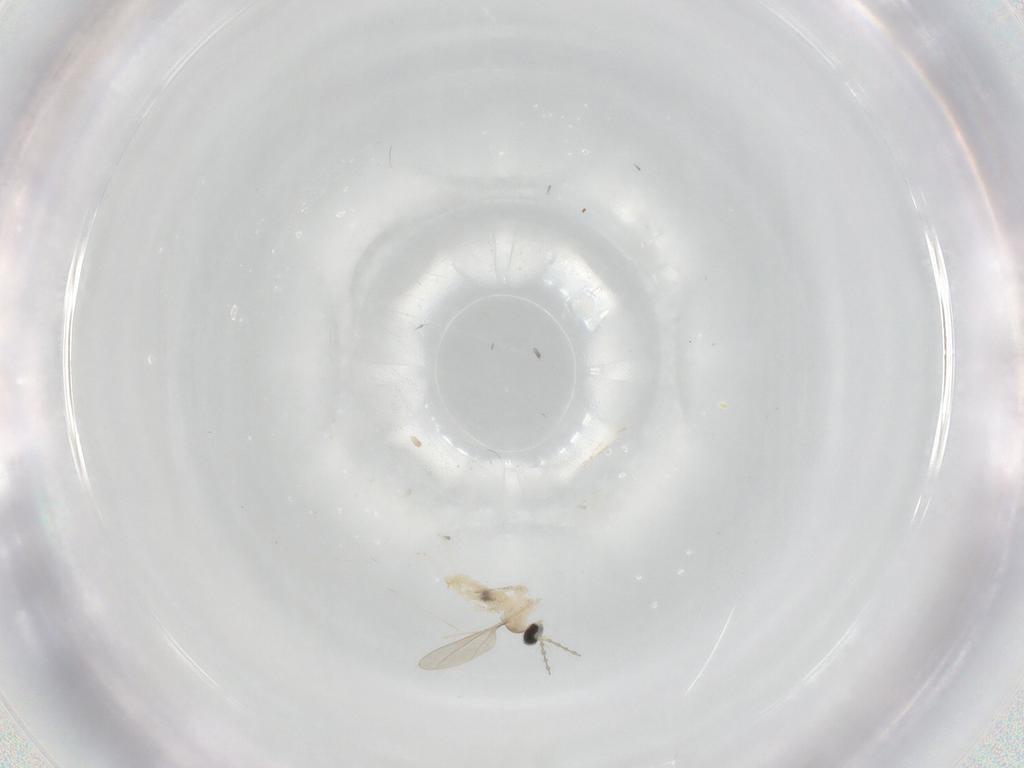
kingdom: Animalia
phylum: Arthropoda
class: Insecta
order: Diptera
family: Cecidomyiidae
